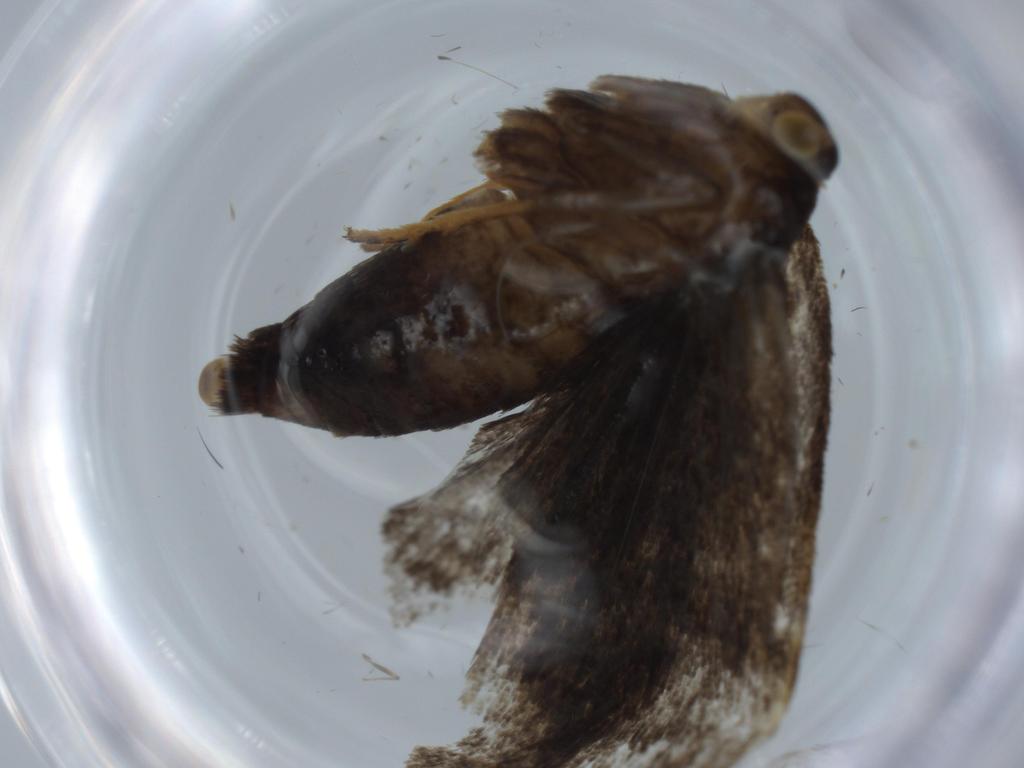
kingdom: Animalia
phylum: Arthropoda
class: Insecta
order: Lepidoptera
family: Choreutidae
